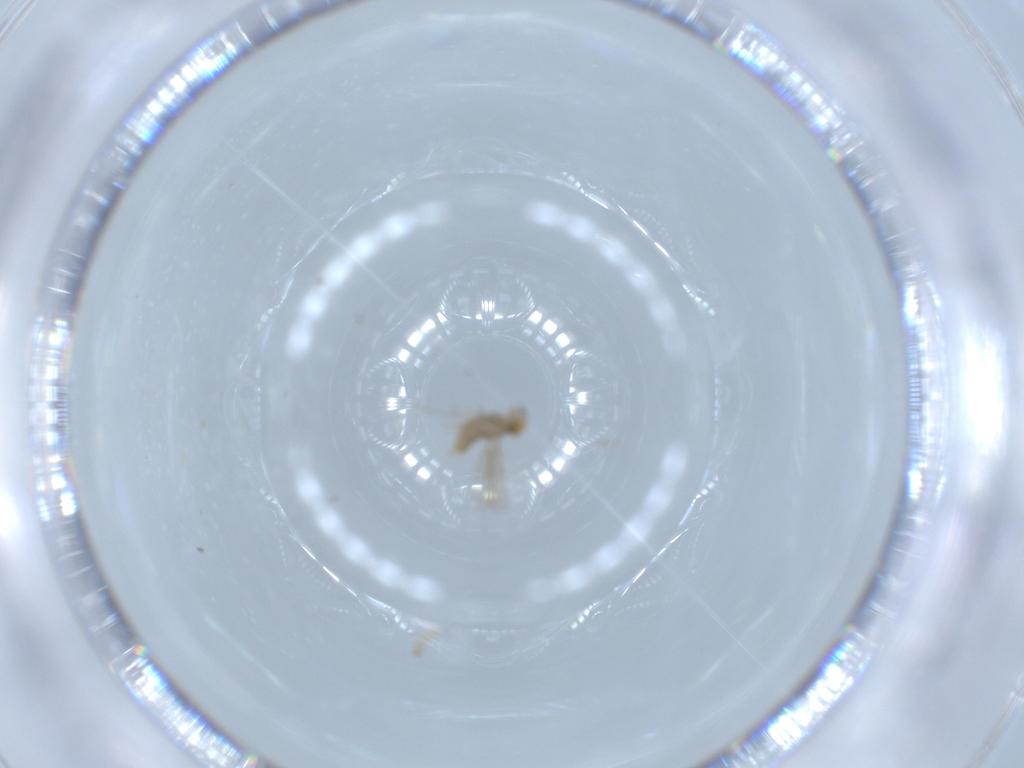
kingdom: Animalia
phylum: Arthropoda
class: Insecta
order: Hymenoptera
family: Aphelinidae
